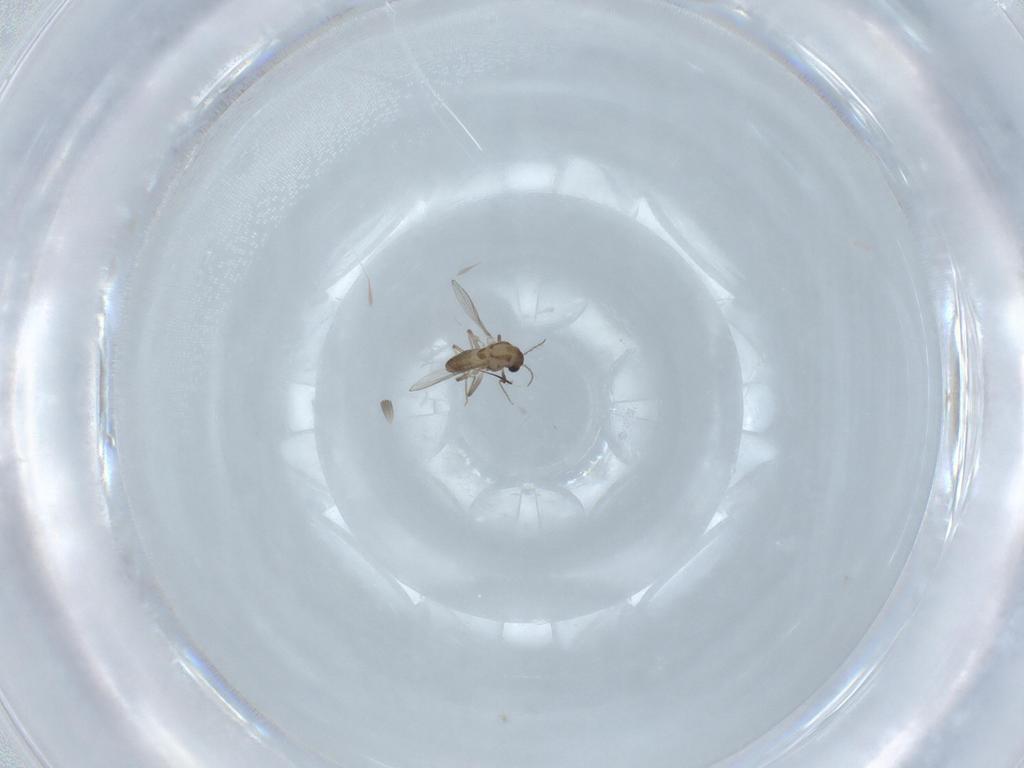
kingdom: Animalia
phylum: Arthropoda
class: Insecta
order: Diptera
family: Chironomidae
